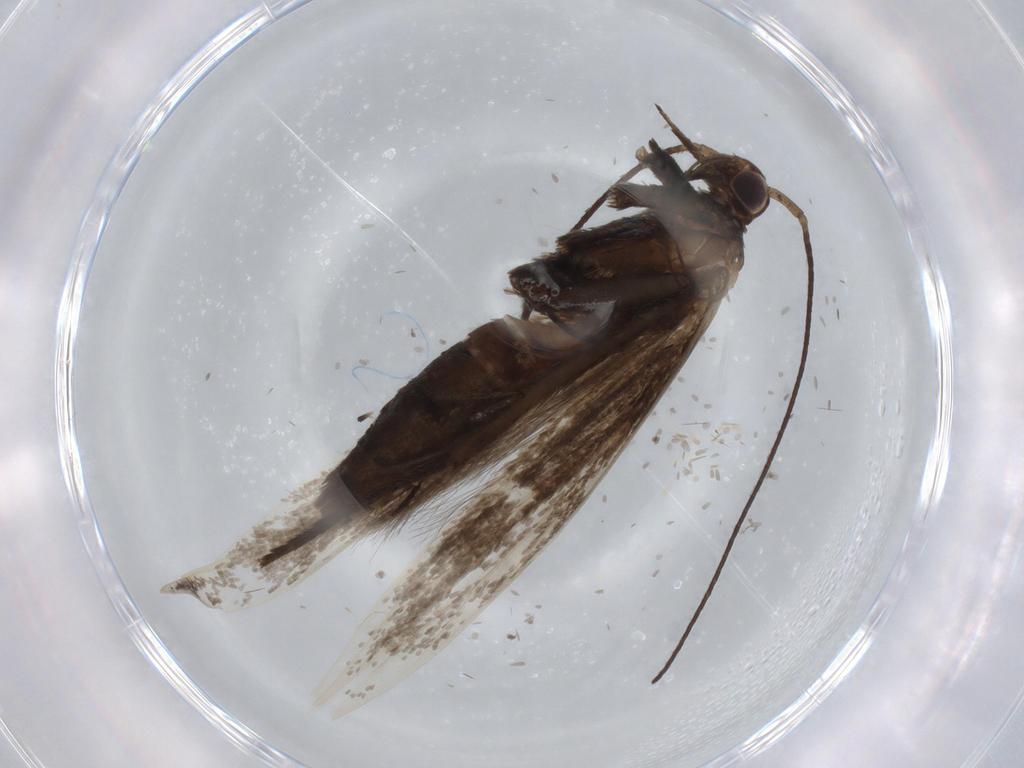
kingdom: Animalia
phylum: Arthropoda
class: Insecta
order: Lepidoptera
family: Coleophoridae
